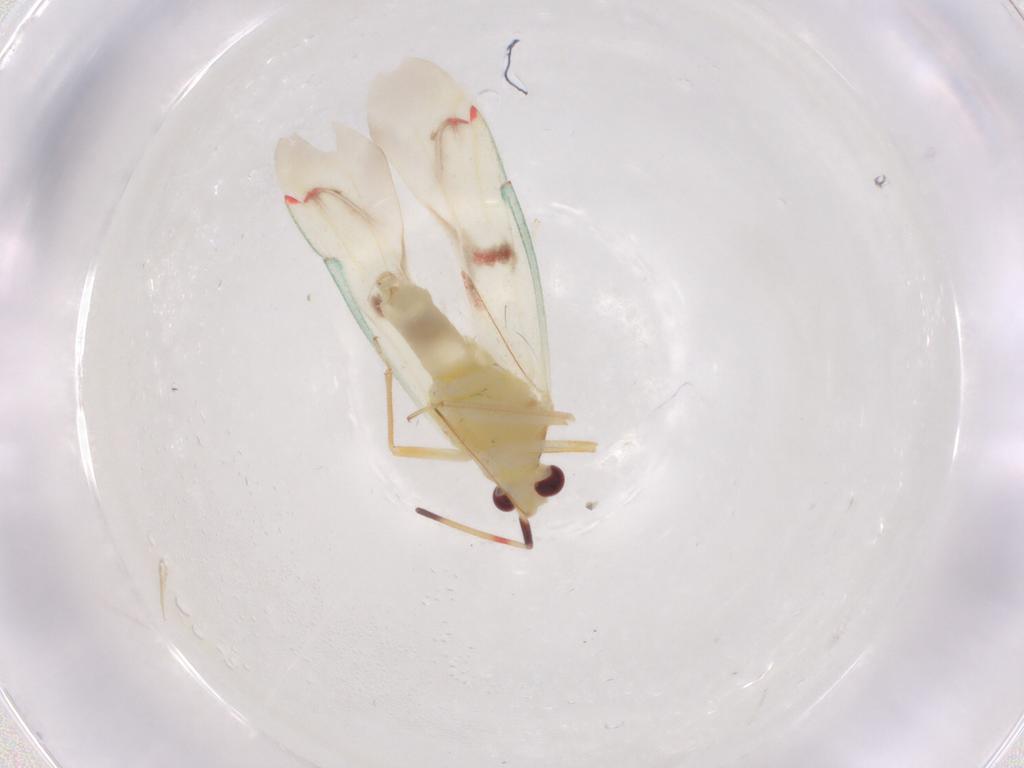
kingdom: Animalia
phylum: Arthropoda
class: Insecta
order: Hemiptera
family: Miridae
